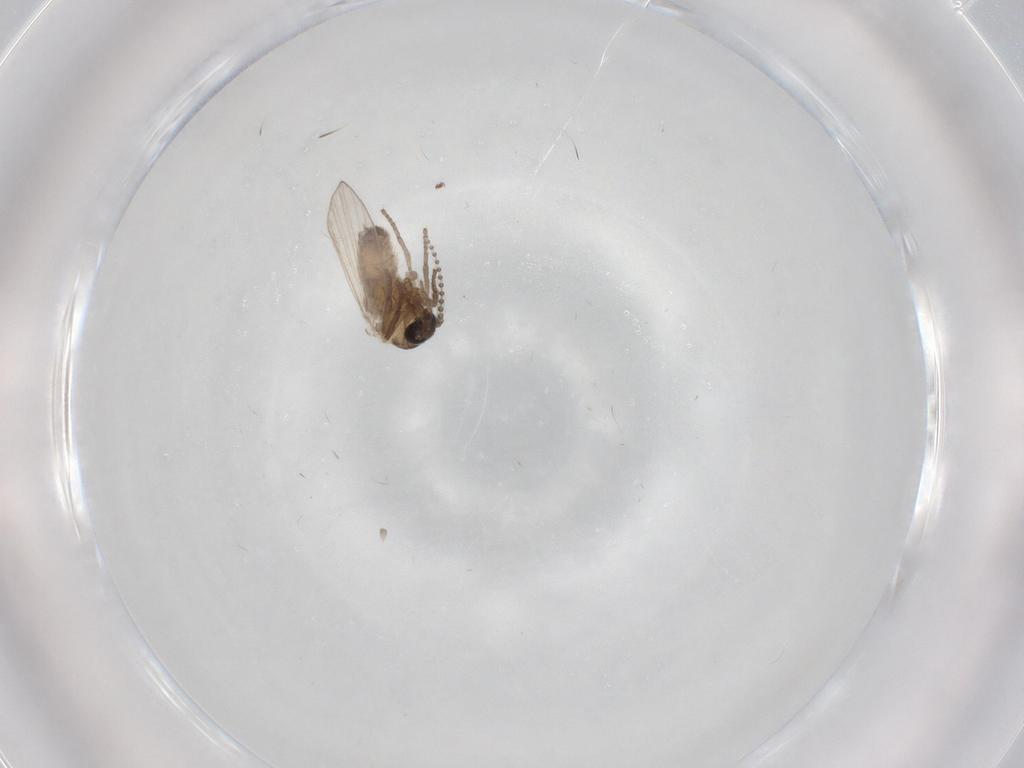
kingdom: Animalia
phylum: Arthropoda
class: Insecta
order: Diptera
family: Psychodidae
